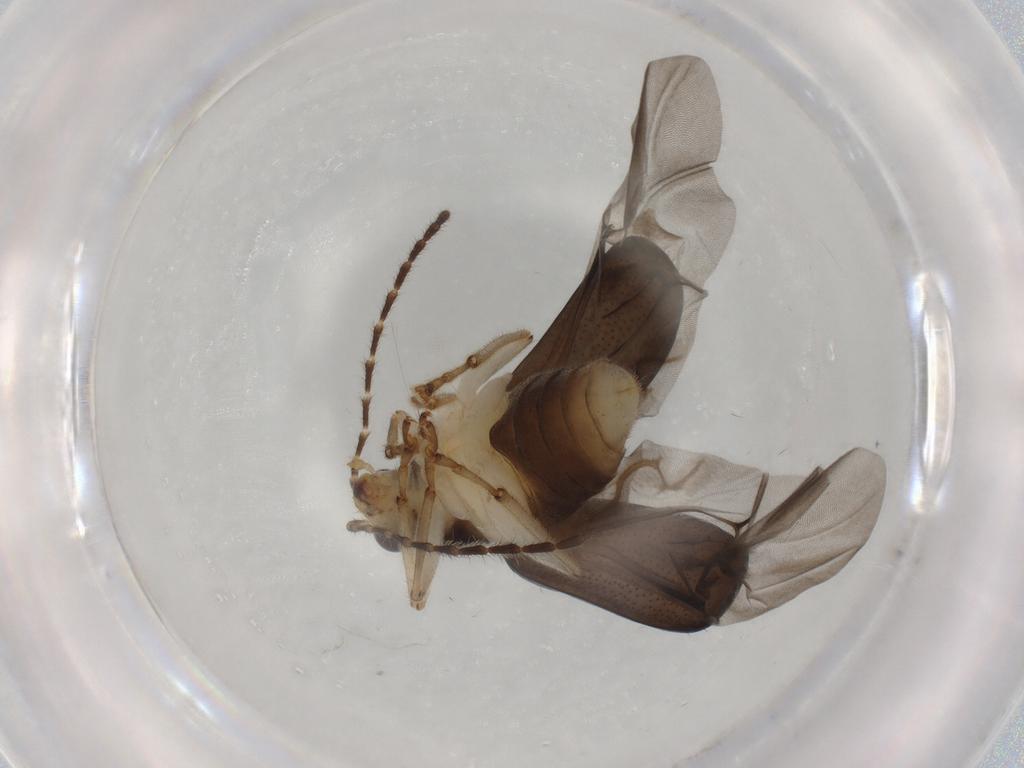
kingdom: Animalia
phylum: Arthropoda
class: Insecta
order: Coleoptera
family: Chrysomelidae
